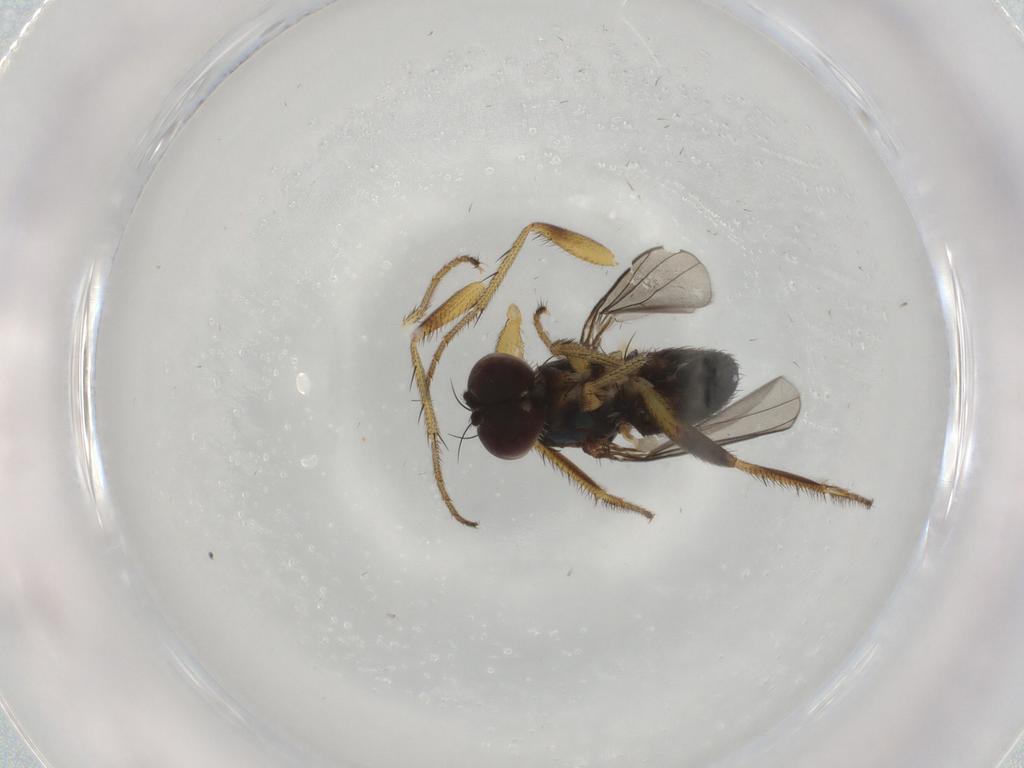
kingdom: Animalia
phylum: Arthropoda
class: Insecta
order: Diptera
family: Dolichopodidae
